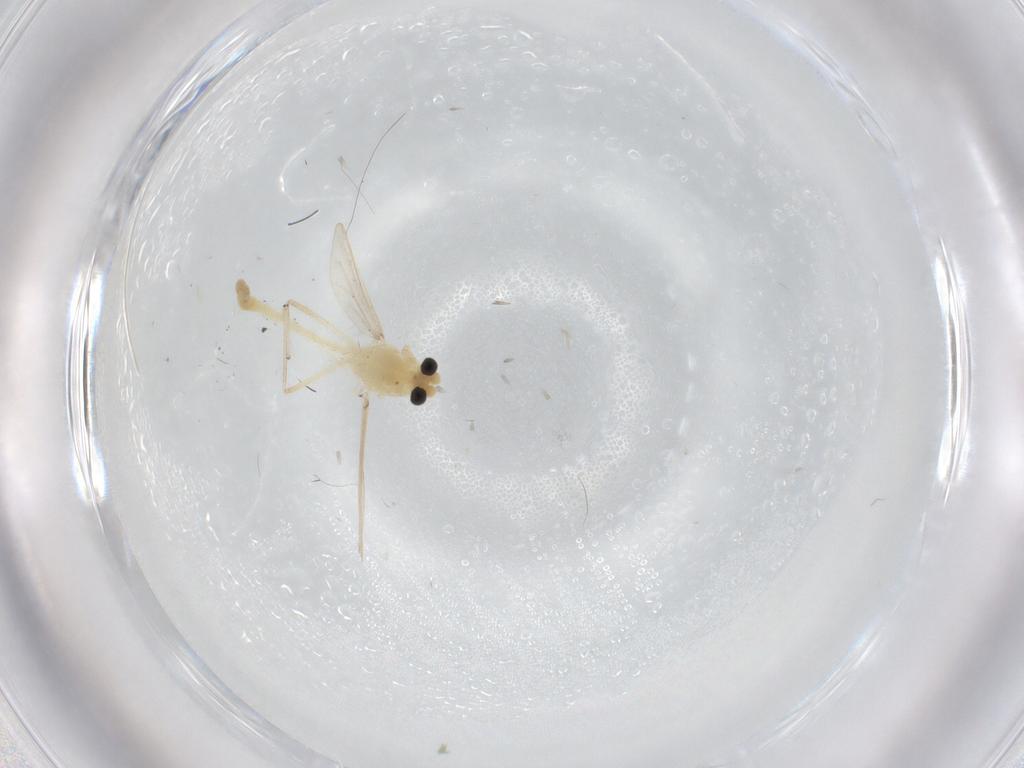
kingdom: Animalia
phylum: Arthropoda
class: Insecta
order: Diptera
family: Chironomidae
